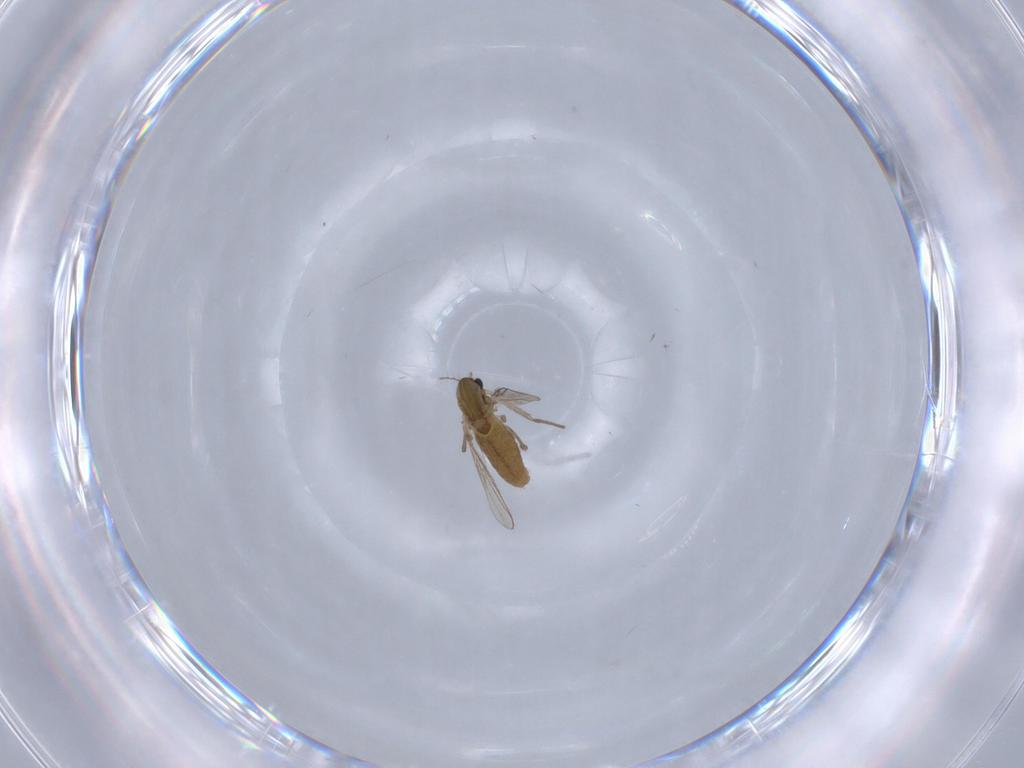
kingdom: Animalia
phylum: Arthropoda
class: Insecta
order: Diptera
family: Chironomidae
